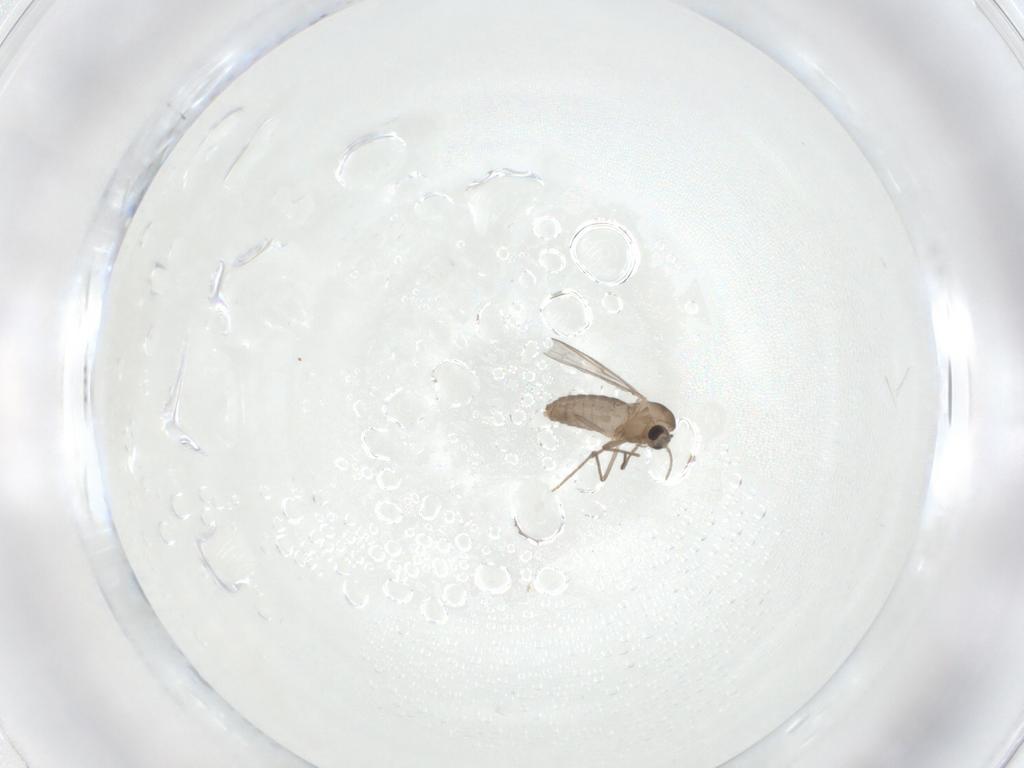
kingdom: Animalia
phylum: Arthropoda
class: Insecta
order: Diptera
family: Chironomidae
